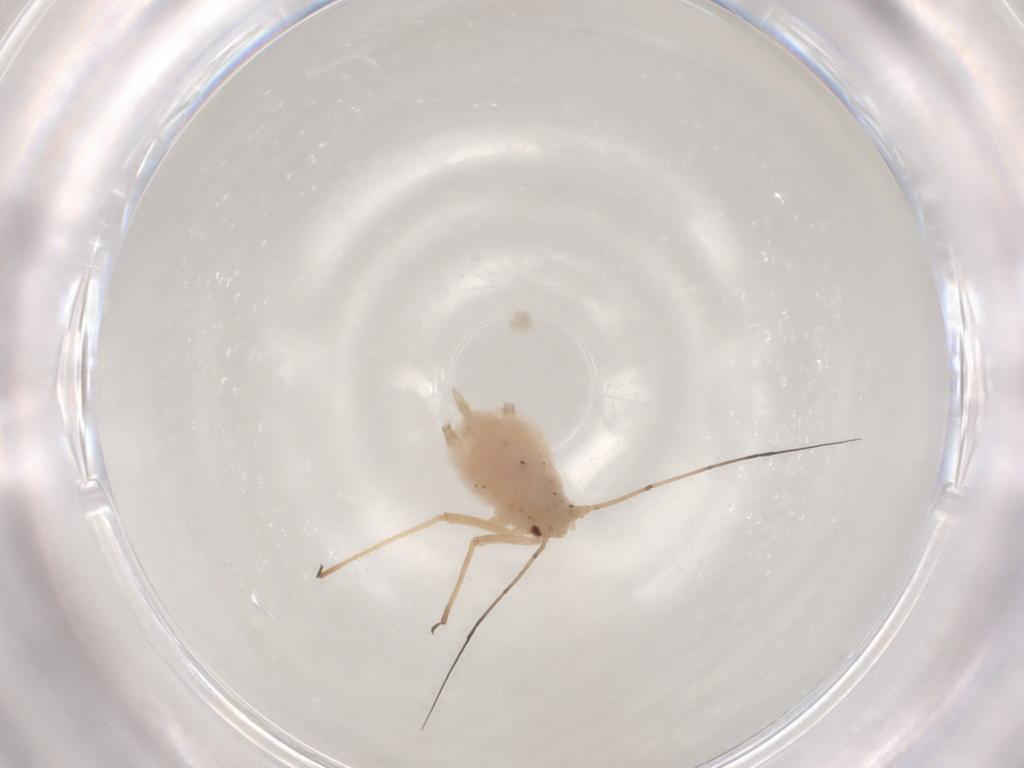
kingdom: Animalia
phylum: Arthropoda
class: Insecta
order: Hemiptera
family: Aphididae
